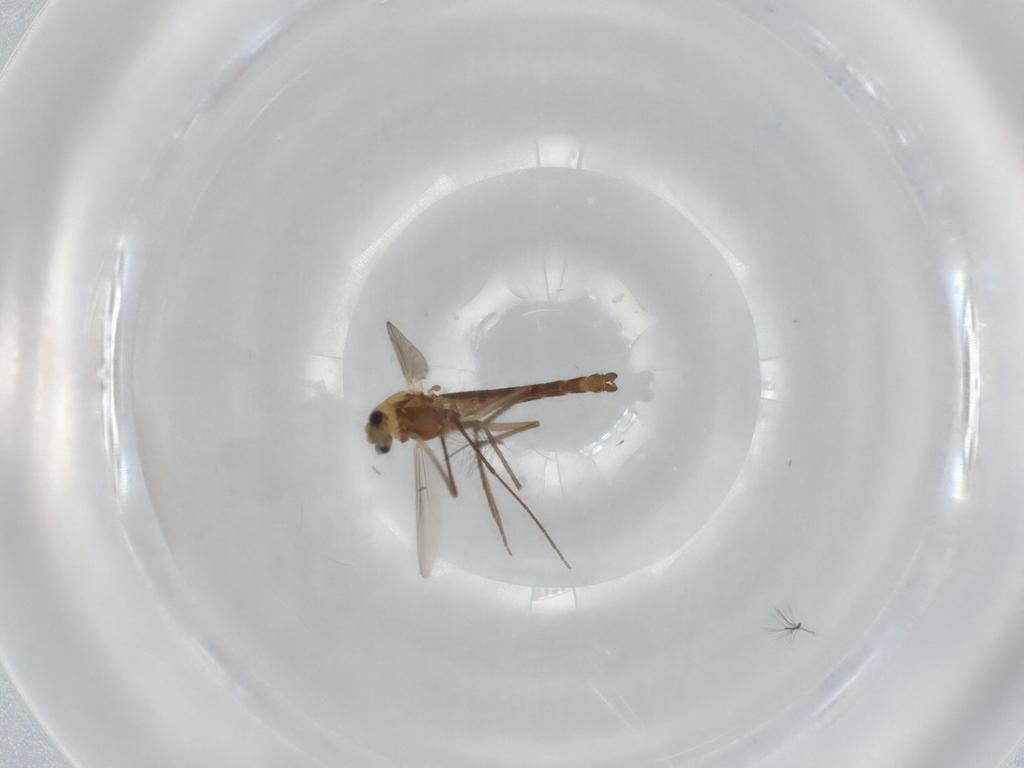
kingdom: Animalia
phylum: Arthropoda
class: Insecta
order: Diptera
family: Chironomidae
